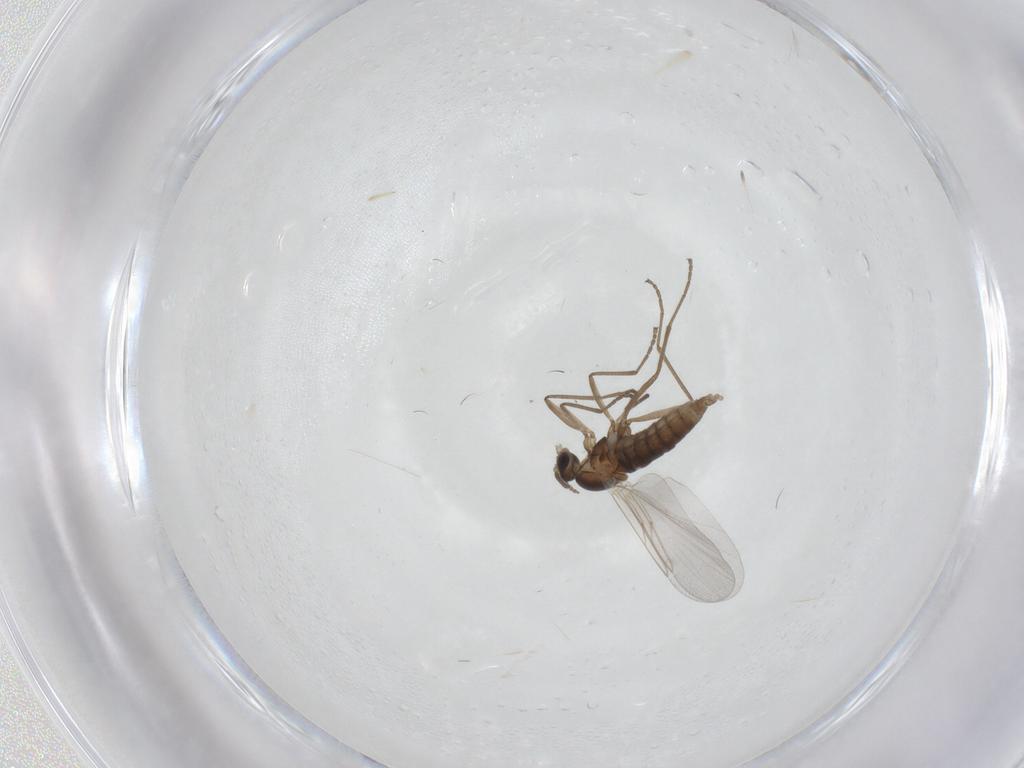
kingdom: Animalia
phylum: Arthropoda
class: Insecta
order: Diptera
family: Cecidomyiidae
